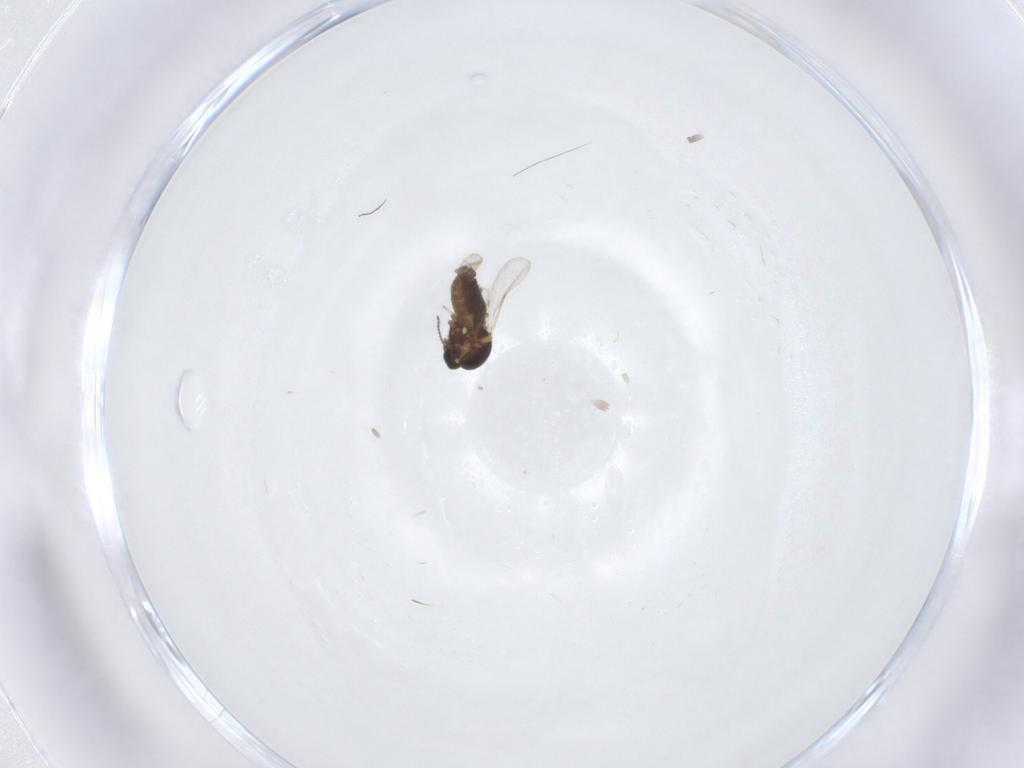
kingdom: Animalia
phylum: Arthropoda
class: Insecta
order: Diptera
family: Ceratopogonidae
